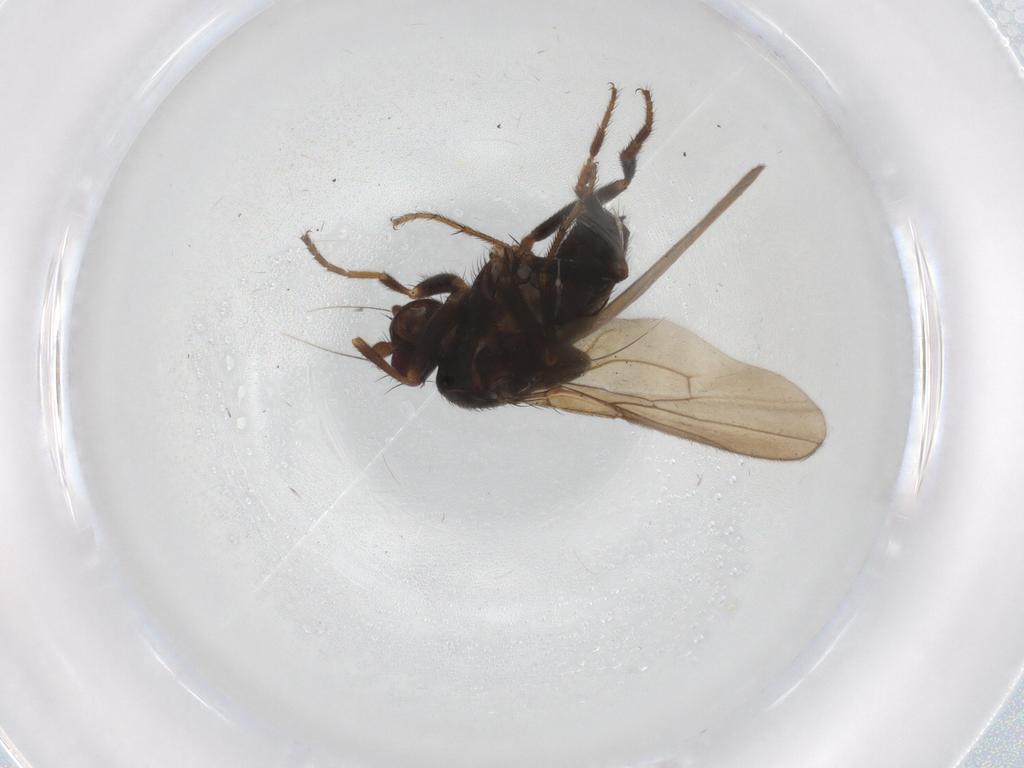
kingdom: Animalia
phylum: Arthropoda
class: Insecta
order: Diptera
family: Sphaeroceridae
